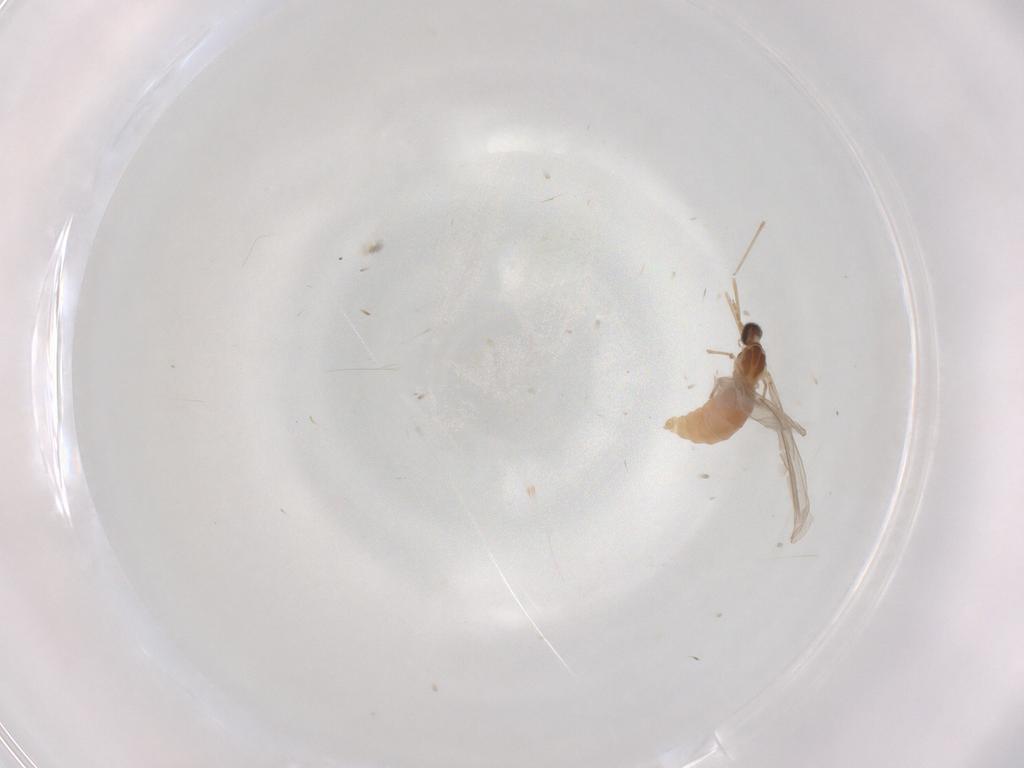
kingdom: Animalia
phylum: Arthropoda
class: Insecta
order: Diptera
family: Cecidomyiidae
